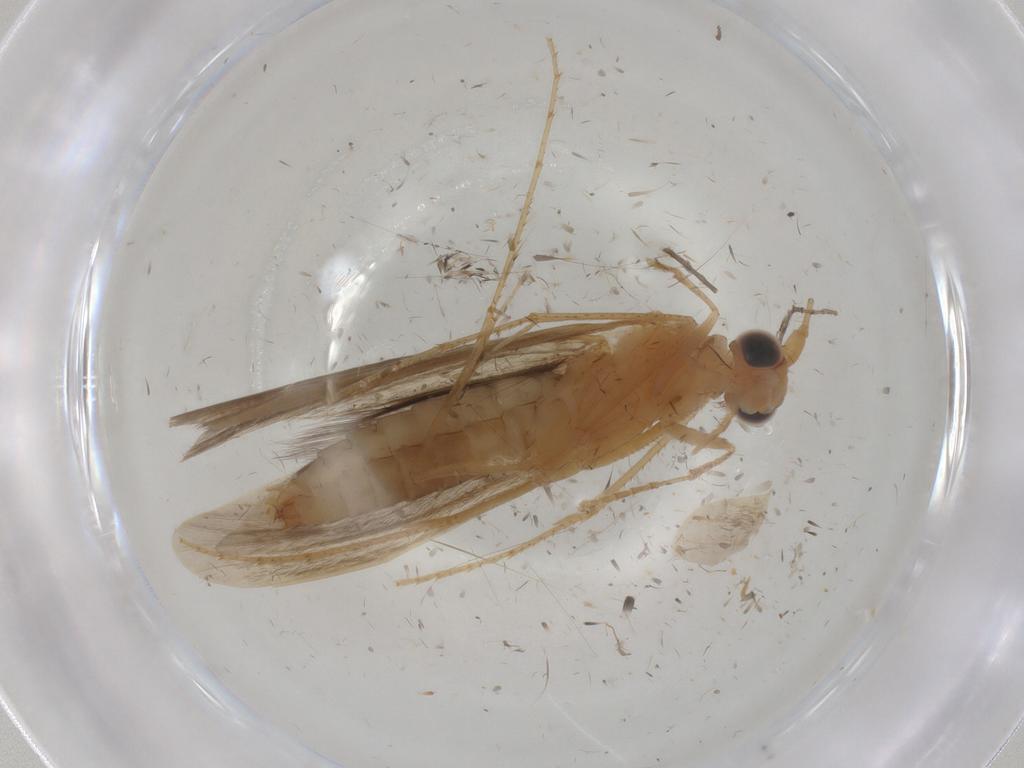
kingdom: Animalia
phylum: Arthropoda
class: Insecta
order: Trichoptera
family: Leptoceridae
